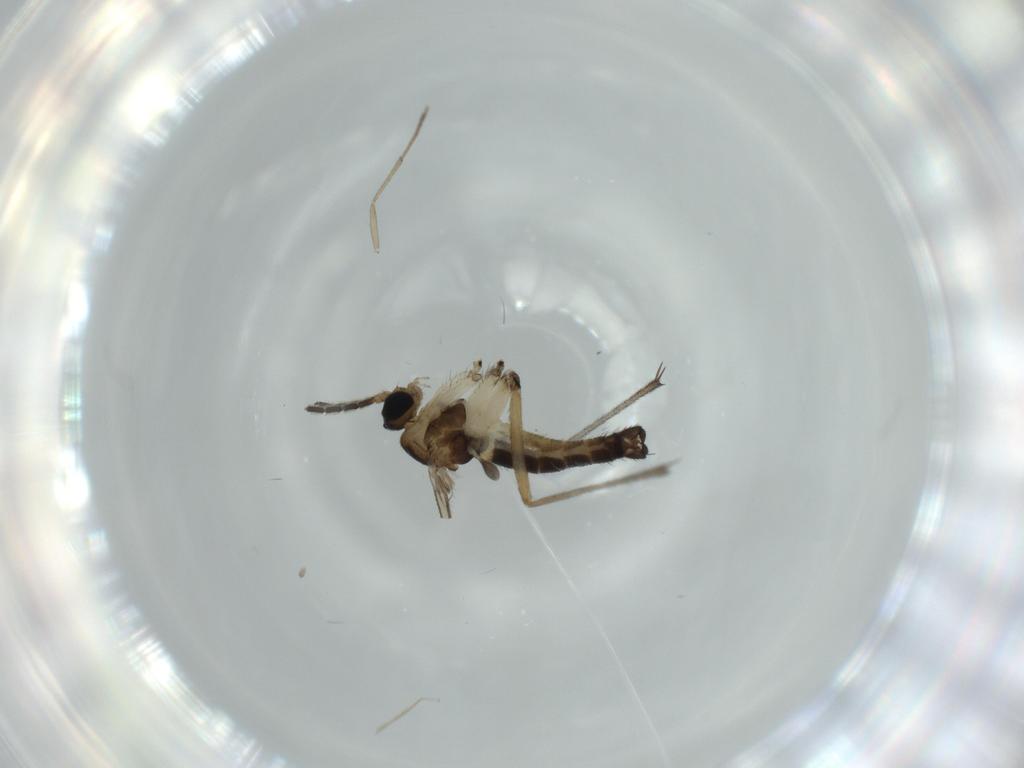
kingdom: Animalia
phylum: Arthropoda
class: Insecta
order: Diptera
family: Sciaridae
